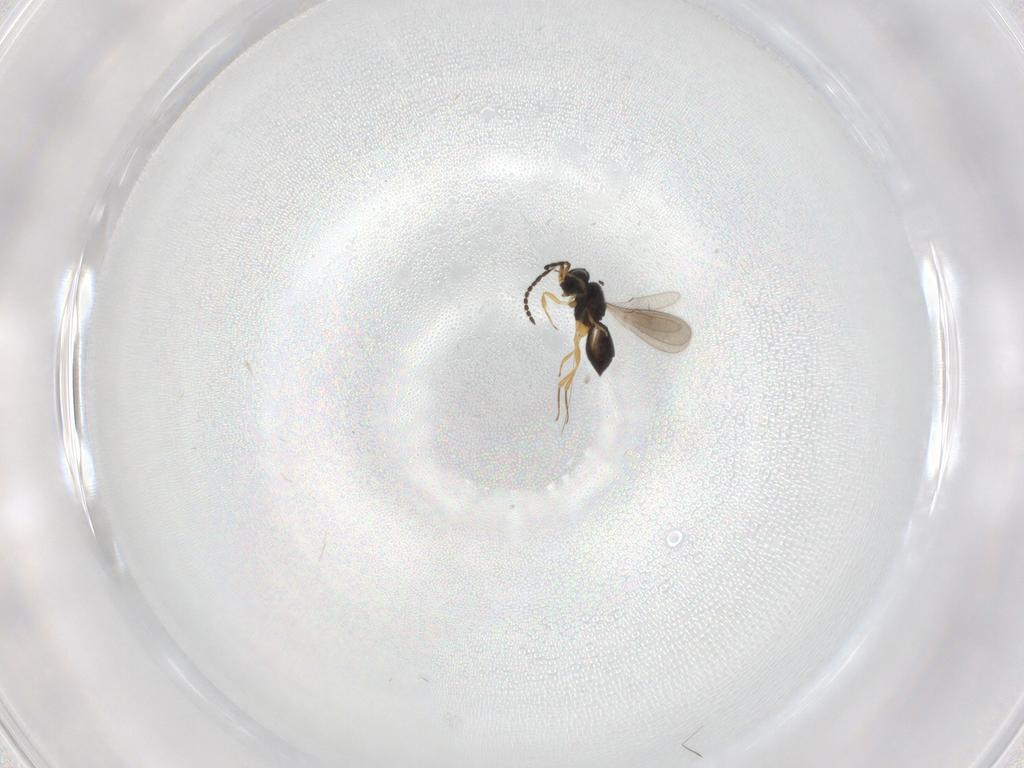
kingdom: Animalia
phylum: Arthropoda
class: Insecta
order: Hymenoptera
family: Scelionidae
